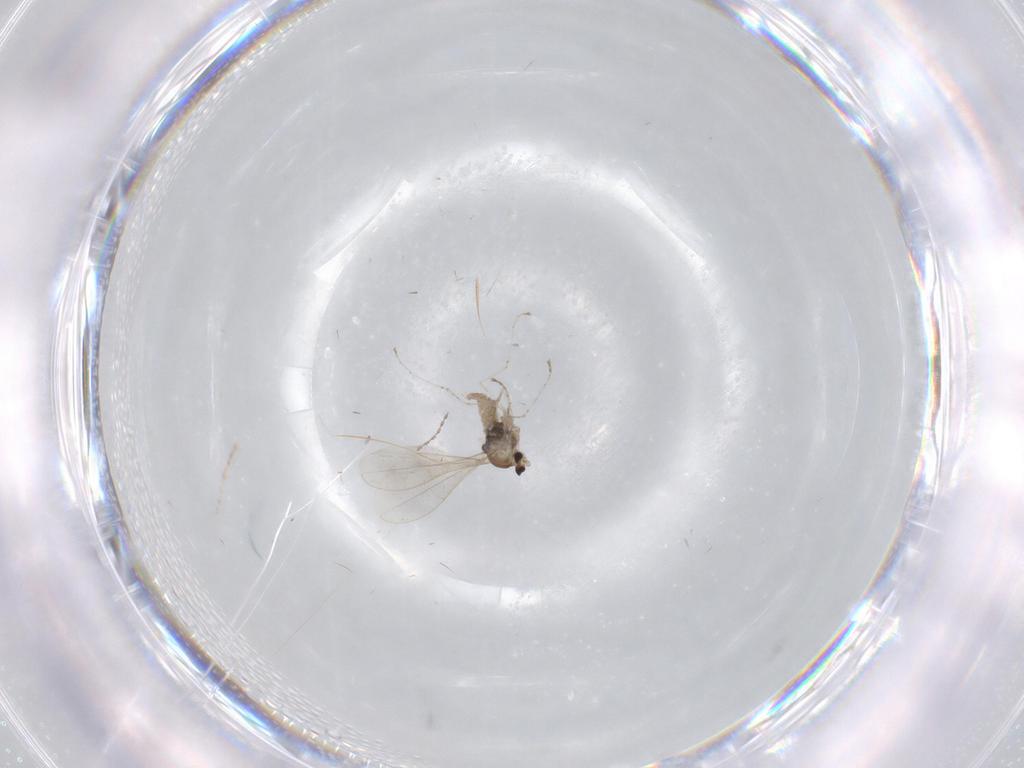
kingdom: Animalia
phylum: Arthropoda
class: Insecta
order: Diptera
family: Cecidomyiidae
